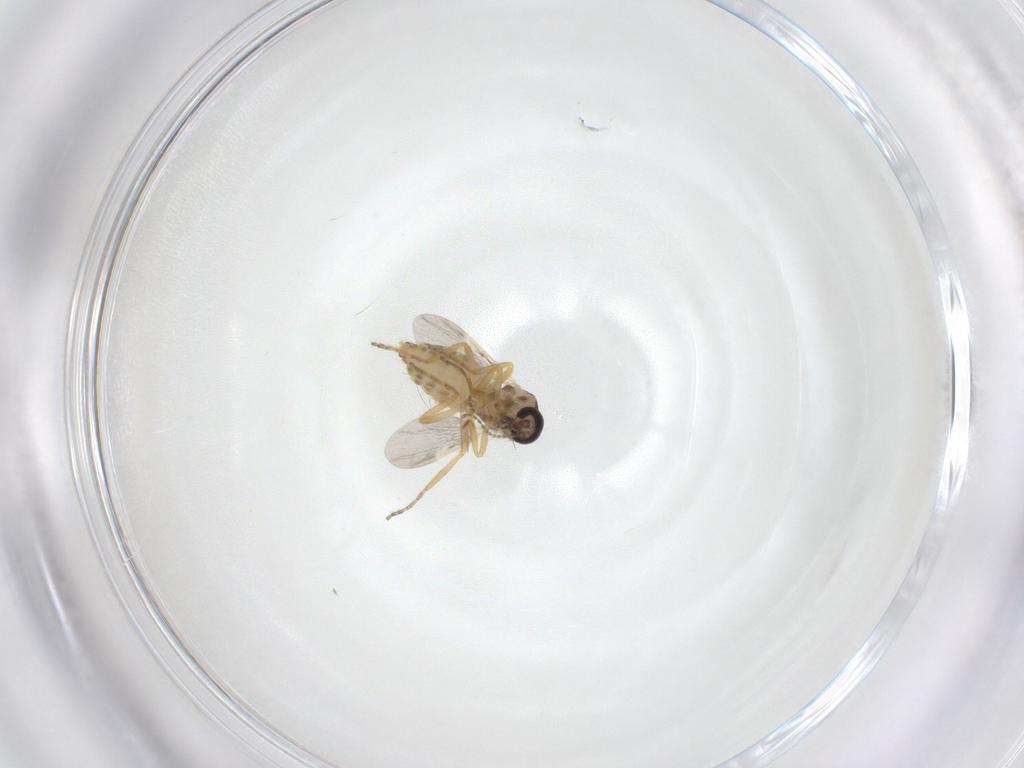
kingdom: Animalia
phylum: Arthropoda
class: Insecta
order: Diptera
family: Ceratopogonidae
